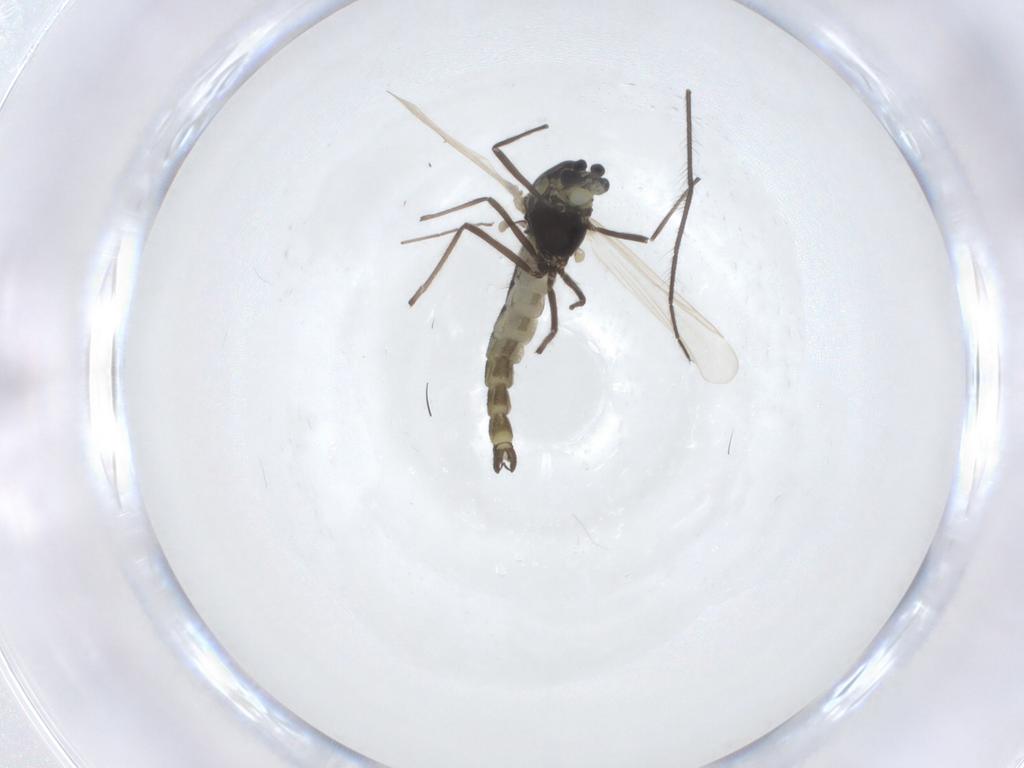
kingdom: Animalia
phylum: Arthropoda
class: Insecta
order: Diptera
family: Chironomidae
